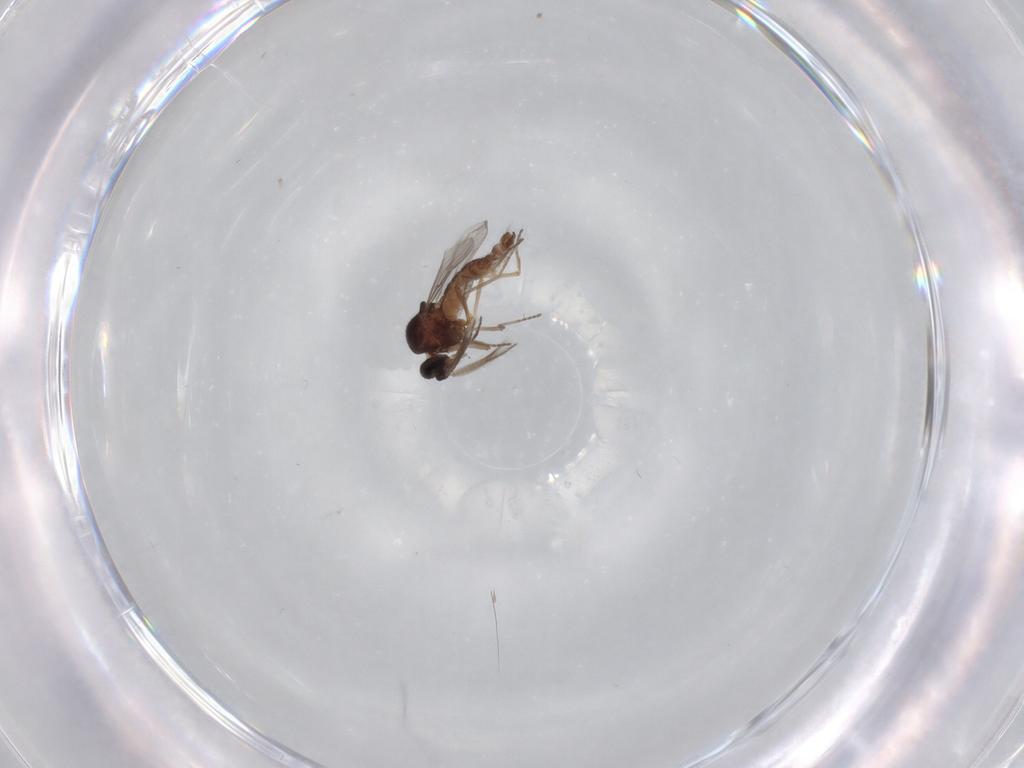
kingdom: Animalia
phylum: Arthropoda
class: Insecta
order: Diptera
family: Ceratopogonidae
